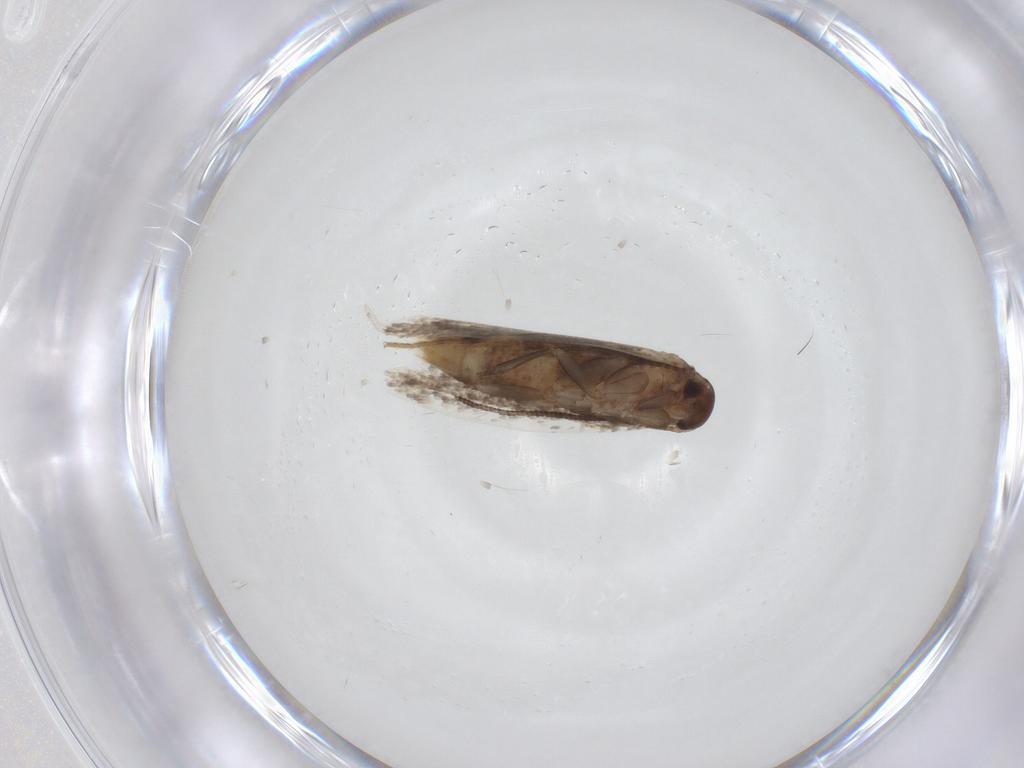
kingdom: Animalia
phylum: Arthropoda
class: Insecta
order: Lepidoptera
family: Elachistidae
